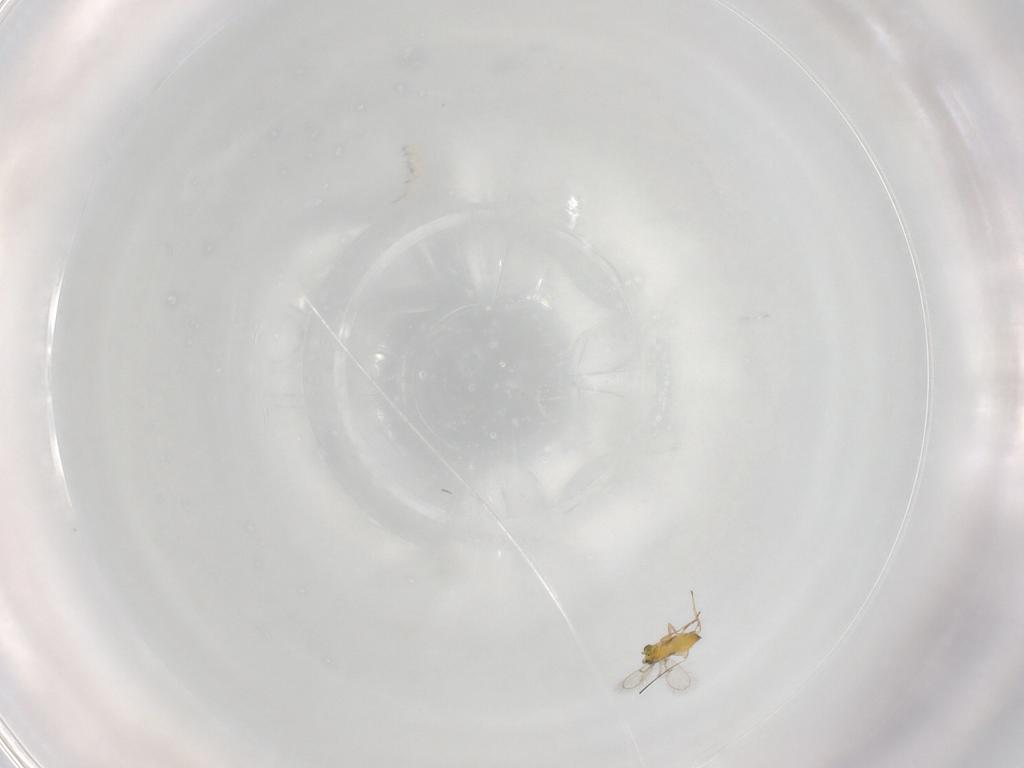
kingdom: Animalia
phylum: Arthropoda
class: Insecta
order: Hymenoptera
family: Trichogrammatidae
